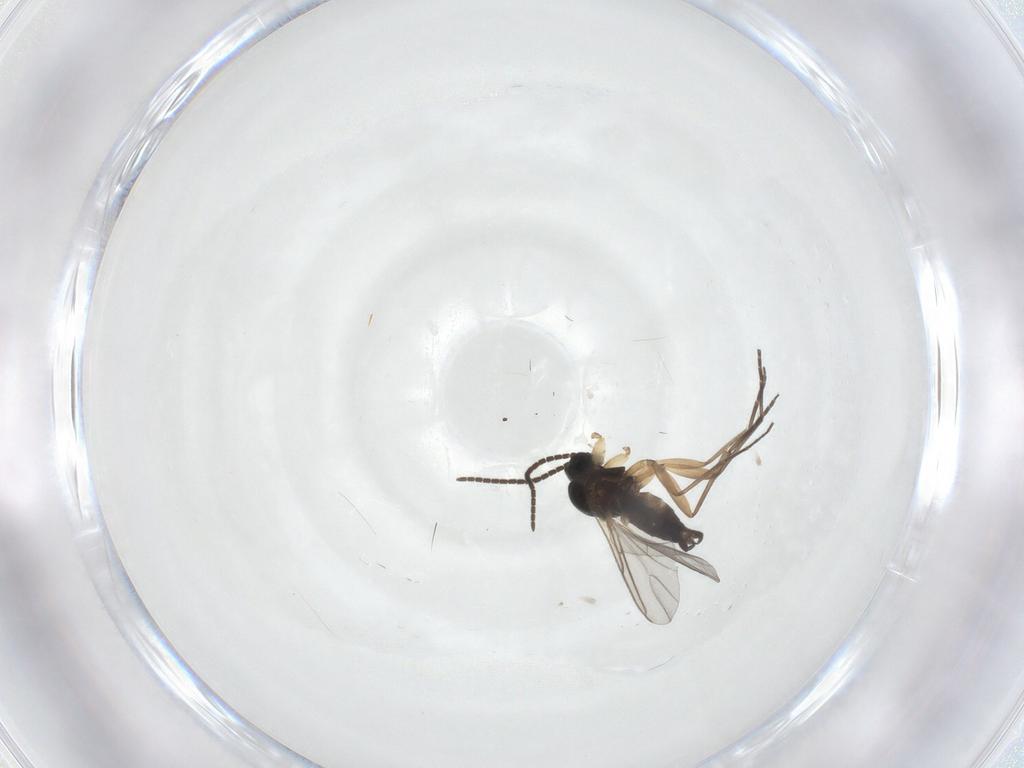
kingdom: Animalia
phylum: Arthropoda
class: Insecta
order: Diptera
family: Sciaridae
